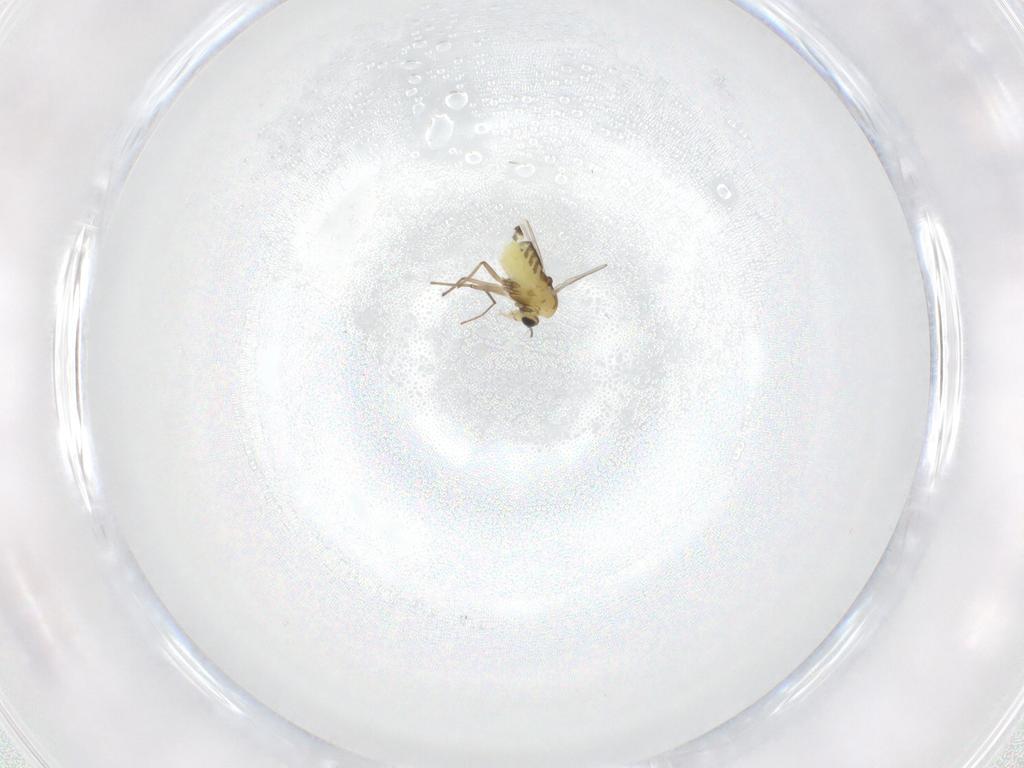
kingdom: Animalia
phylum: Arthropoda
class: Insecta
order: Diptera
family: Chironomidae
